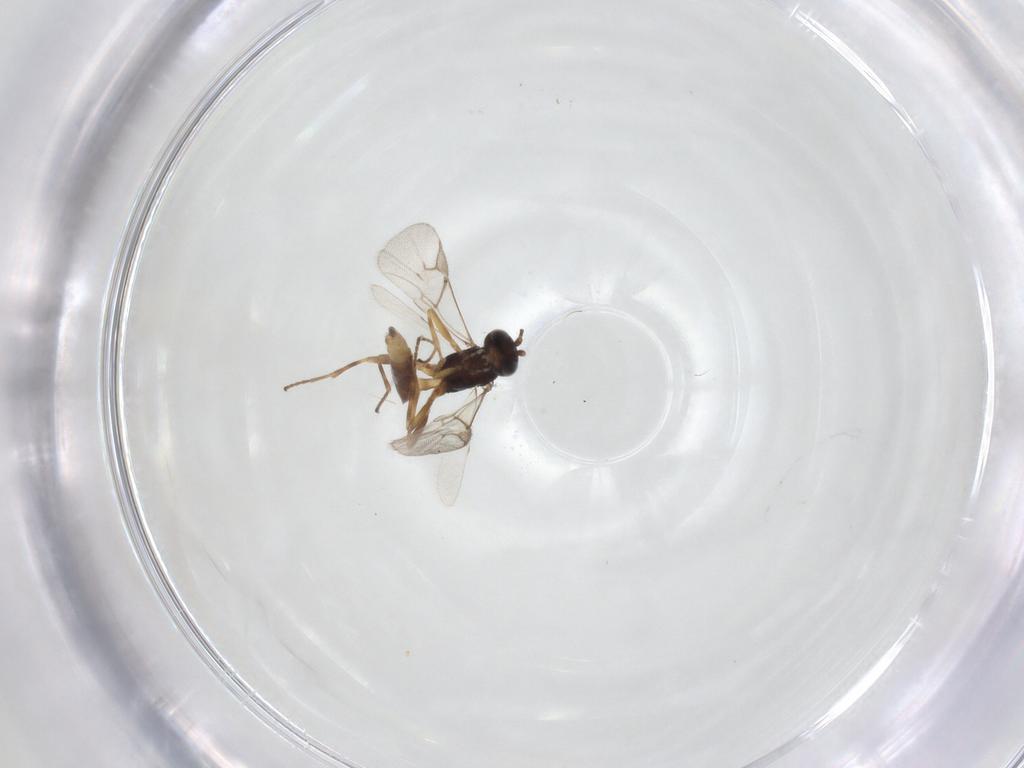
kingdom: Animalia
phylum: Arthropoda
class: Insecta
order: Hymenoptera
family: Braconidae
